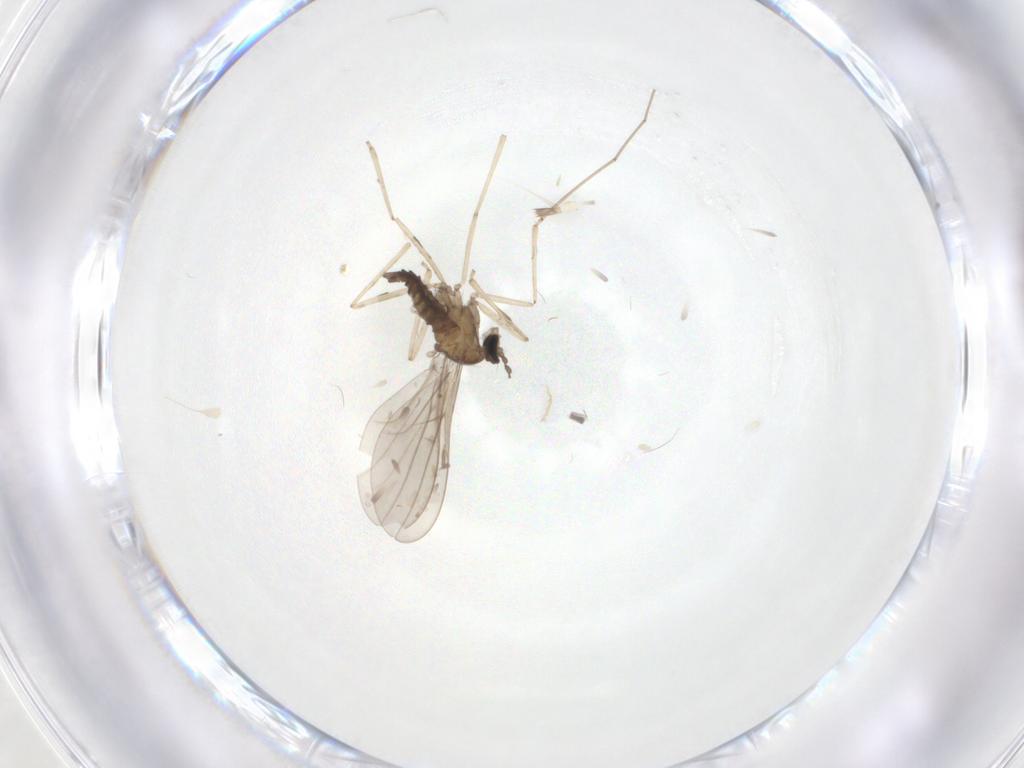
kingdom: Animalia
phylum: Arthropoda
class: Insecta
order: Diptera
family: Cecidomyiidae
